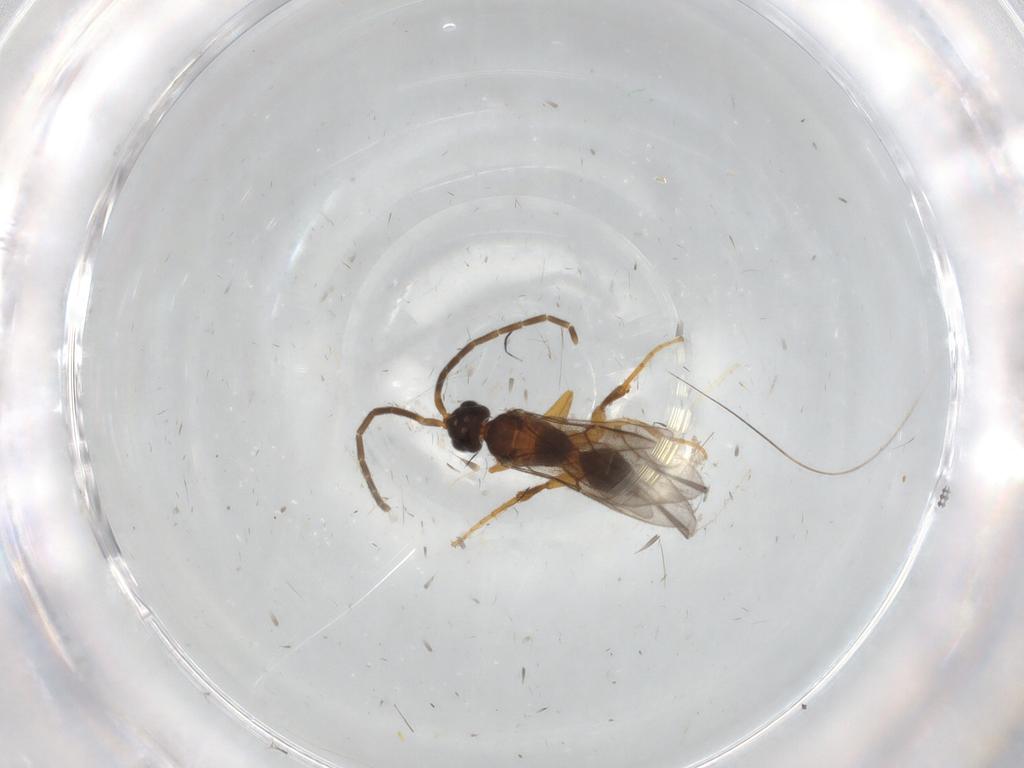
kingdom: Animalia
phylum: Arthropoda
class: Insecta
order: Hymenoptera
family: Embolemidae
